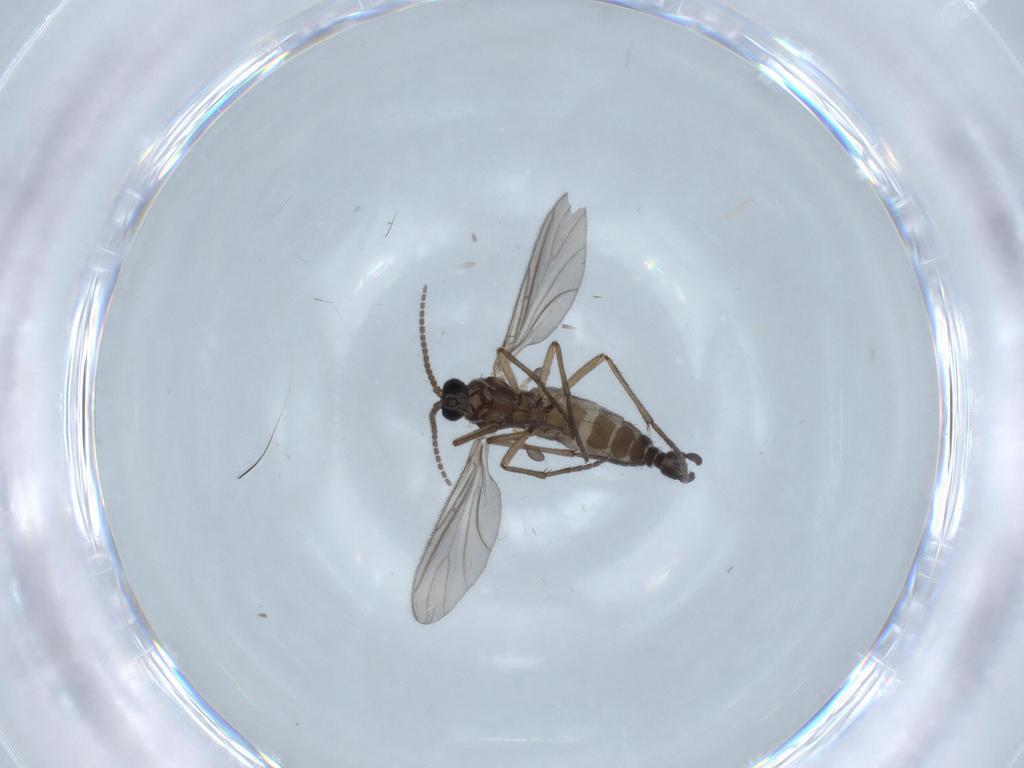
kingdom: Animalia
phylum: Arthropoda
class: Insecta
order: Diptera
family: Sciaridae
